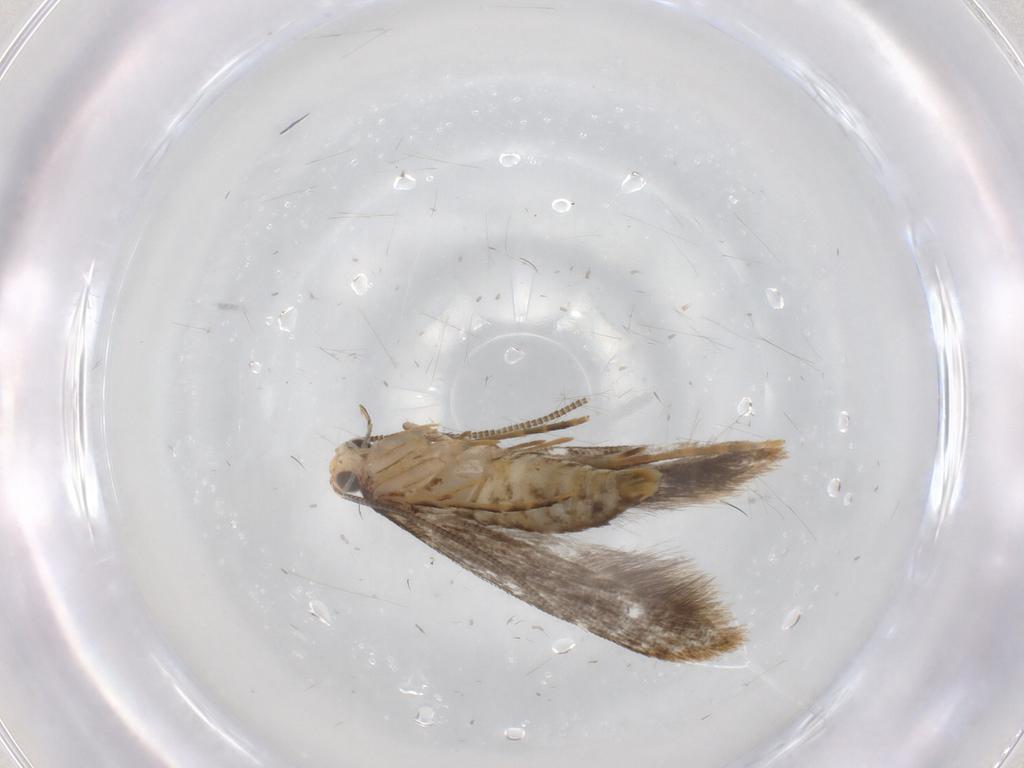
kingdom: Animalia
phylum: Arthropoda
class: Insecta
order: Lepidoptera
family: Tineidae
